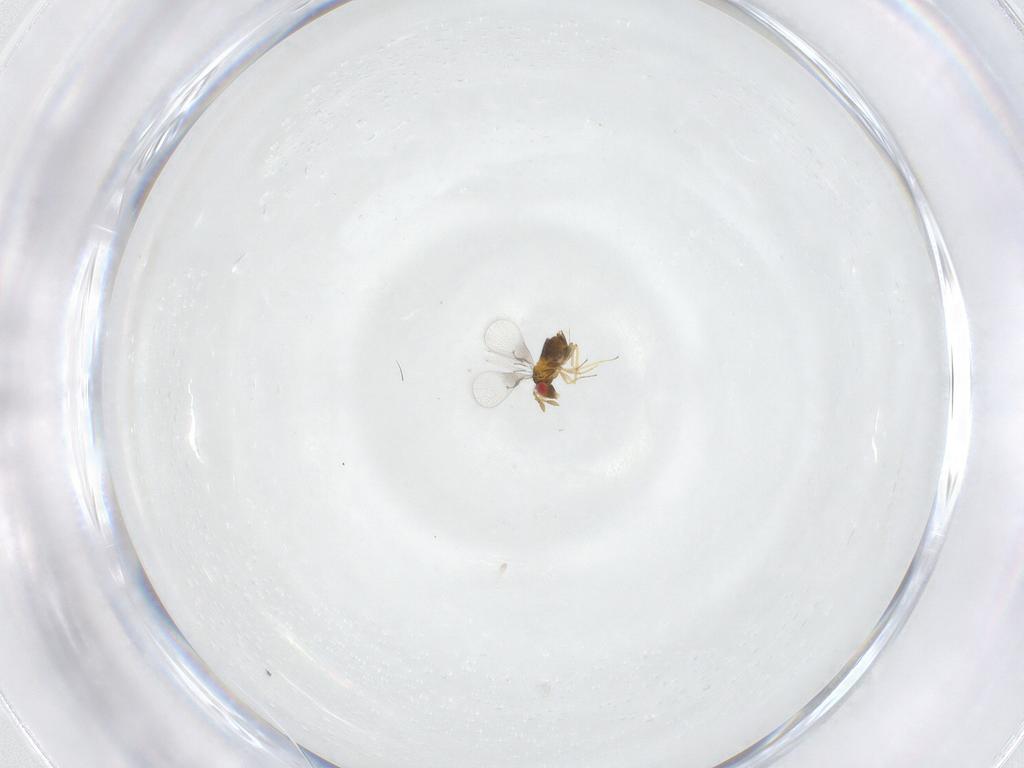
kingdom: Animalia
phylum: Arthropoda
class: Insecta
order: Hymenoptera
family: Trichogrammatidae
